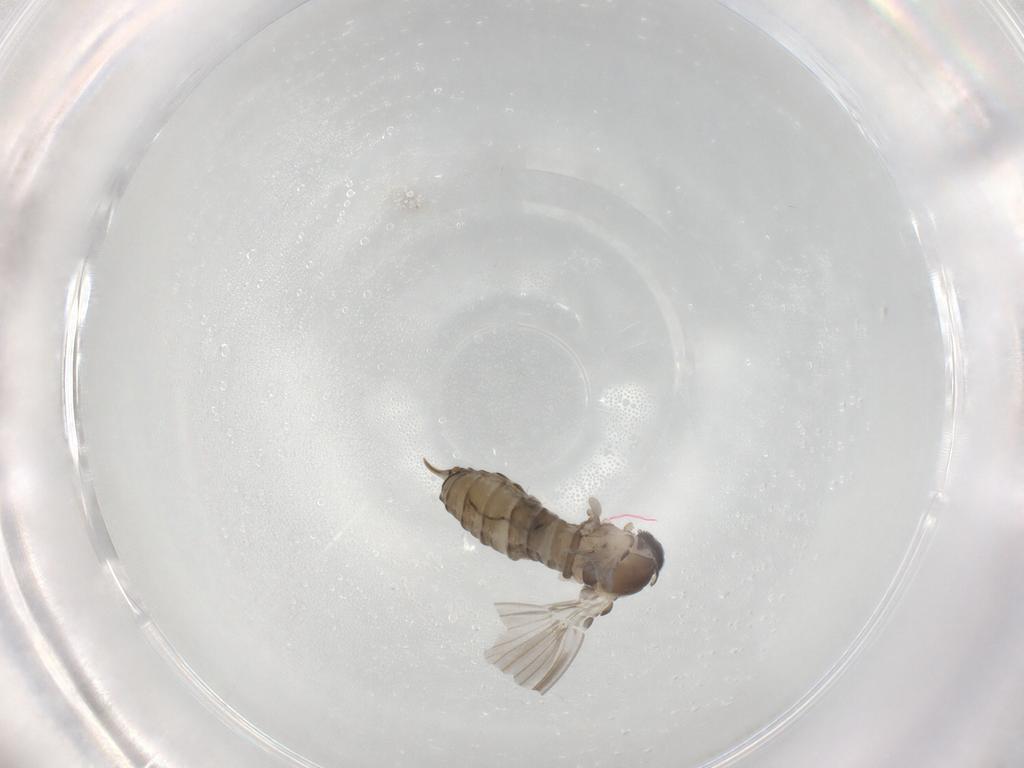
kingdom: Animalia
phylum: Arthropoda
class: Insecta
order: Diptera
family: Psychodidae
